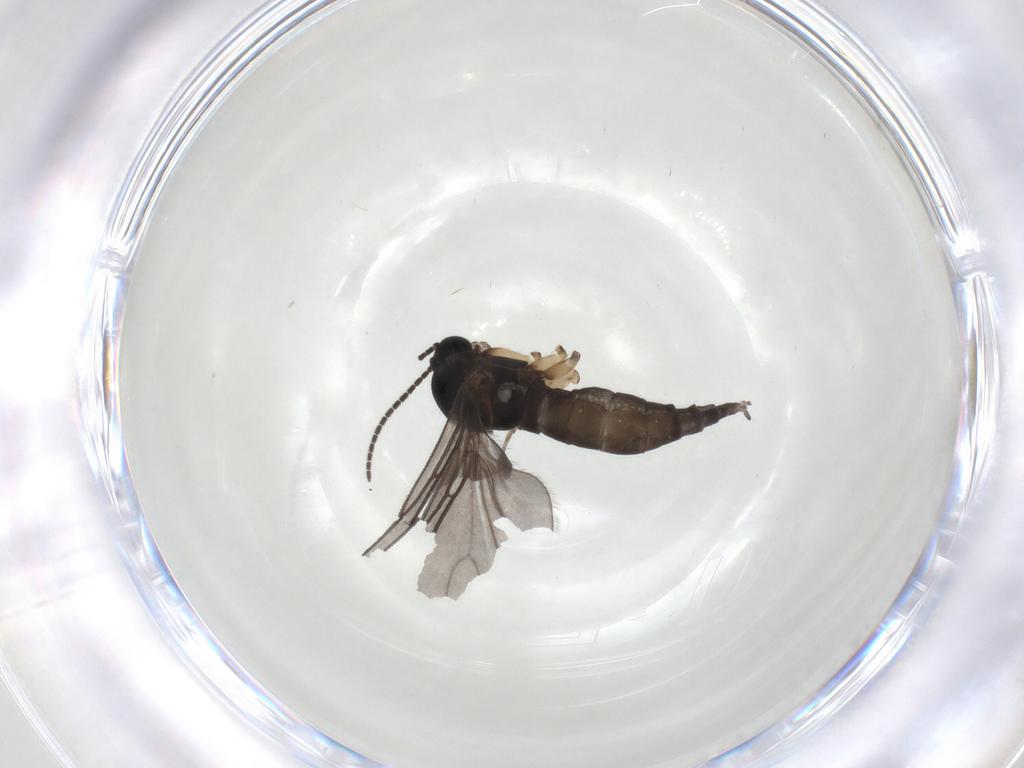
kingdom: Animalia
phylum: Arthropoda
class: Insecta
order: Diptera
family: Sciaridae
